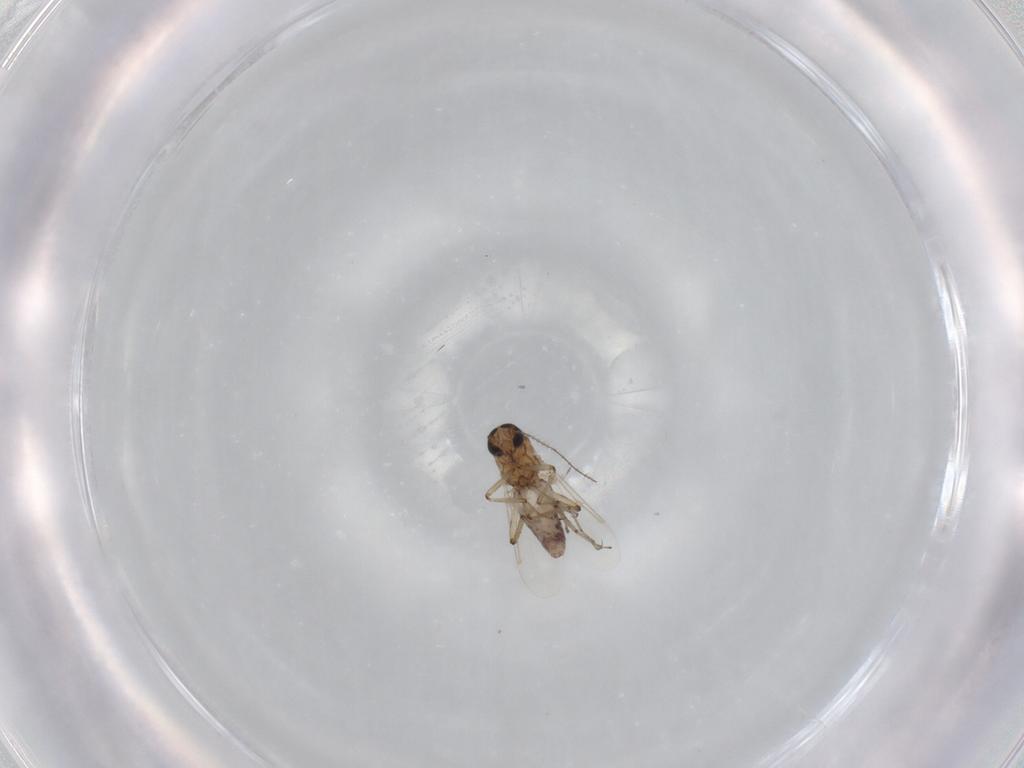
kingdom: Animalia
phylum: Arthropoda
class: Insecta
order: Diptera
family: Ceratopogonidae
